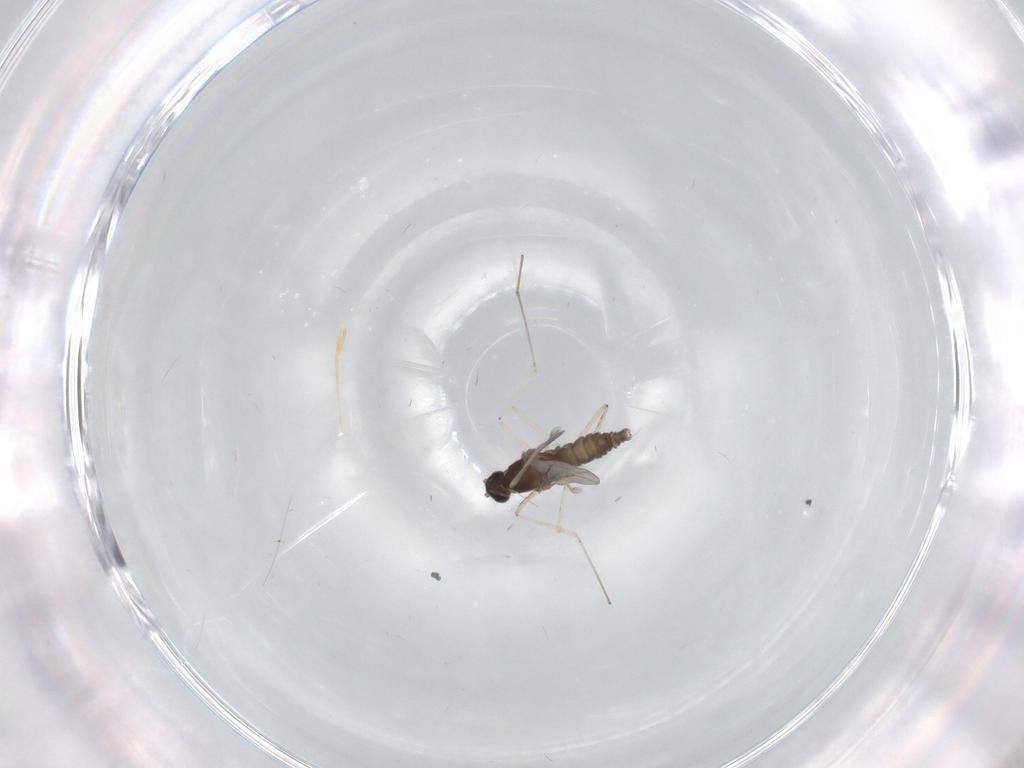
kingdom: Animalia
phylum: Arthropoda
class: Insecta
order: Diptera
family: Cecidomyiidae
